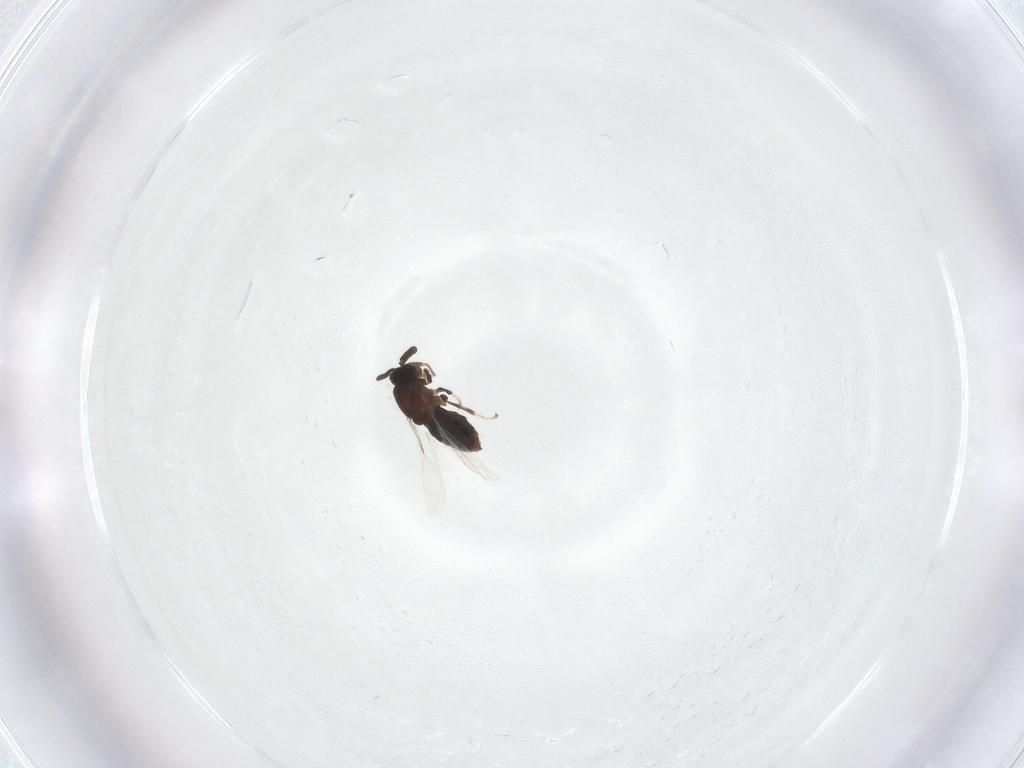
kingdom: Animalia
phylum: Arthropoda
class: Insecta
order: Diptera
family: Scatopsidae
